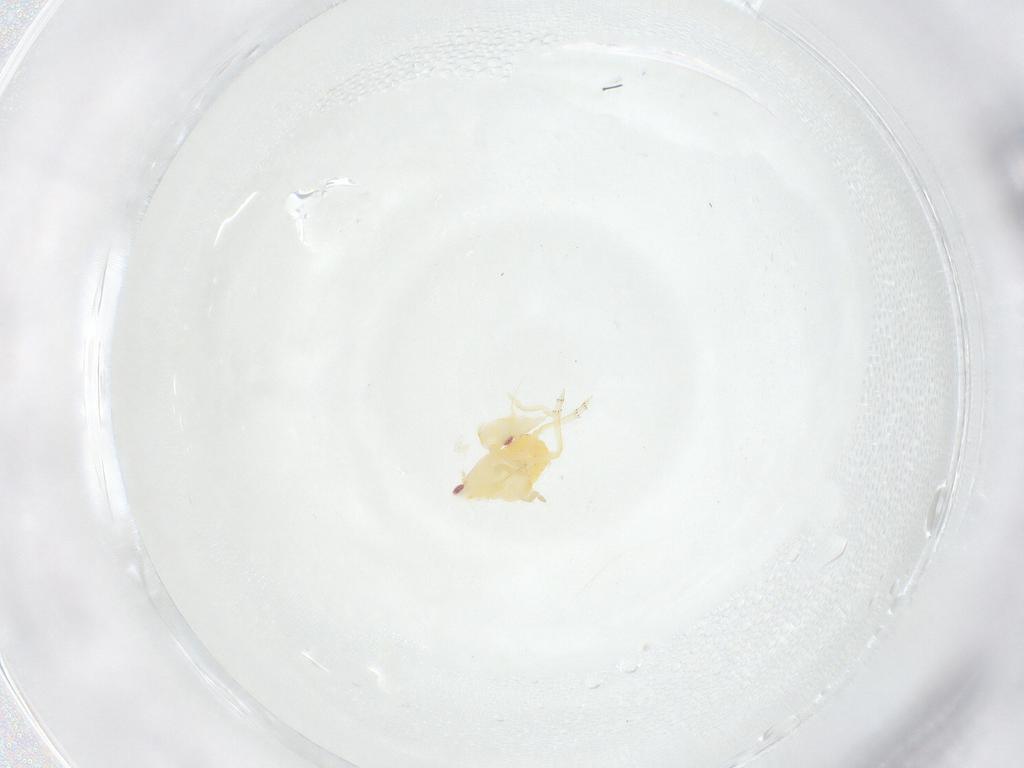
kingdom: Animalia
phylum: Arthropoda
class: Insecta
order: Hemiptera
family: Flatidae
